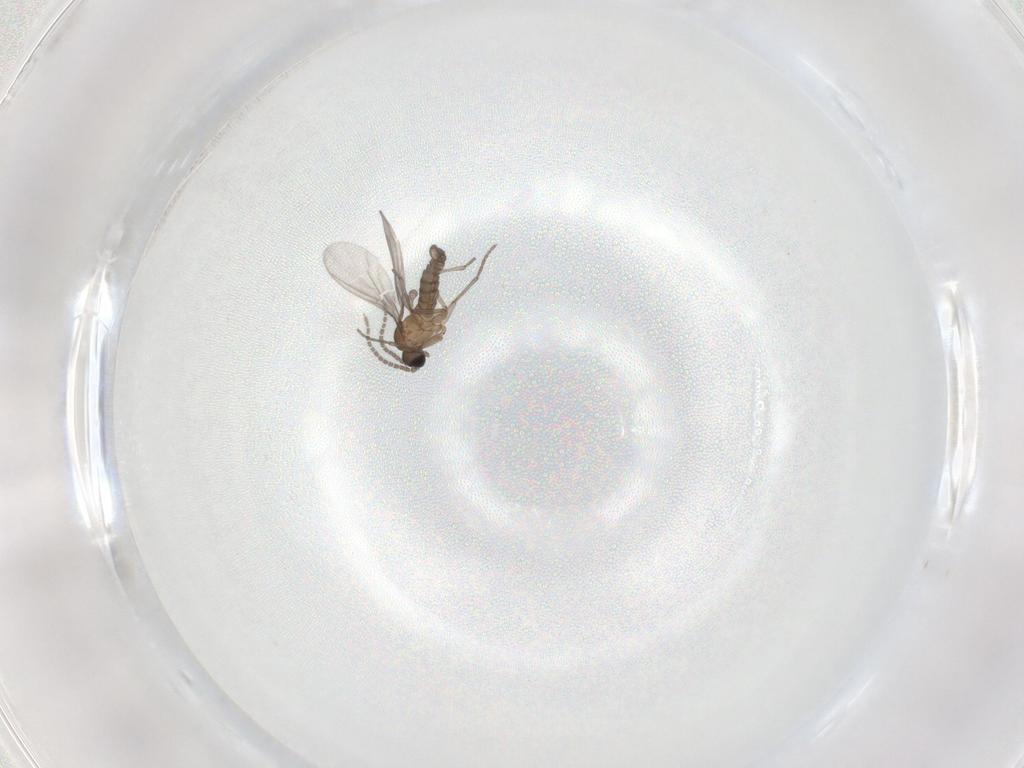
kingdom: Animalia
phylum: Arthropoda
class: Insecta
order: Diptera
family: Sciaridae
